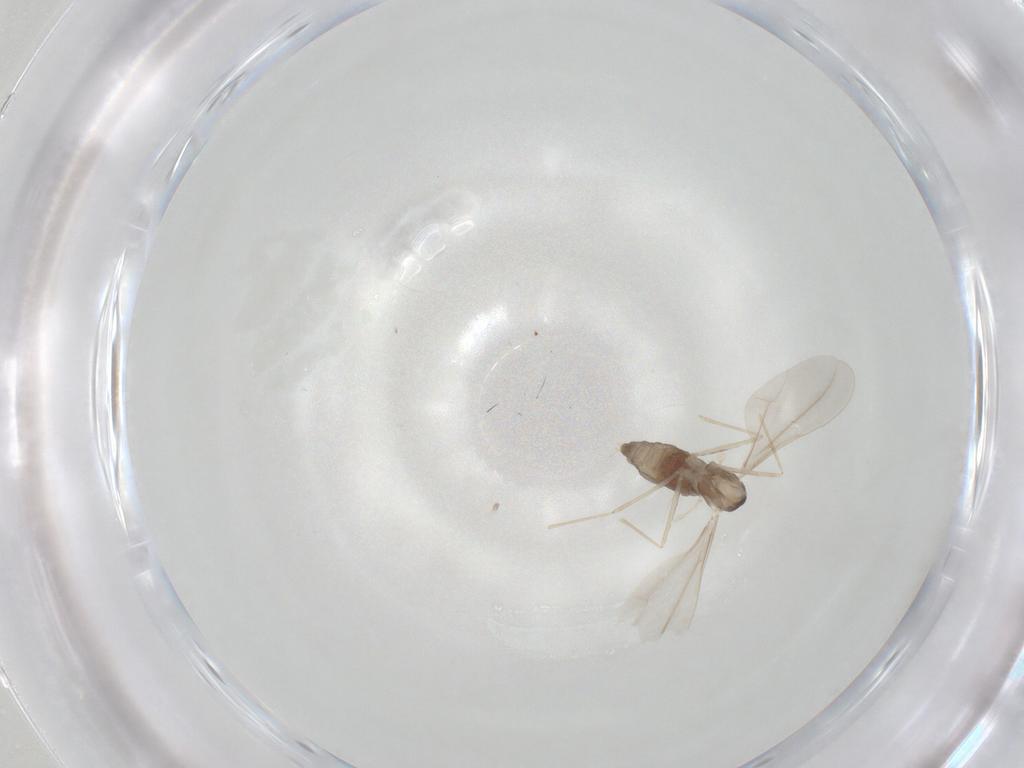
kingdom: Animalia
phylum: Arthropoda
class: Insecta
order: Diptera
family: Cecidomyiidae
